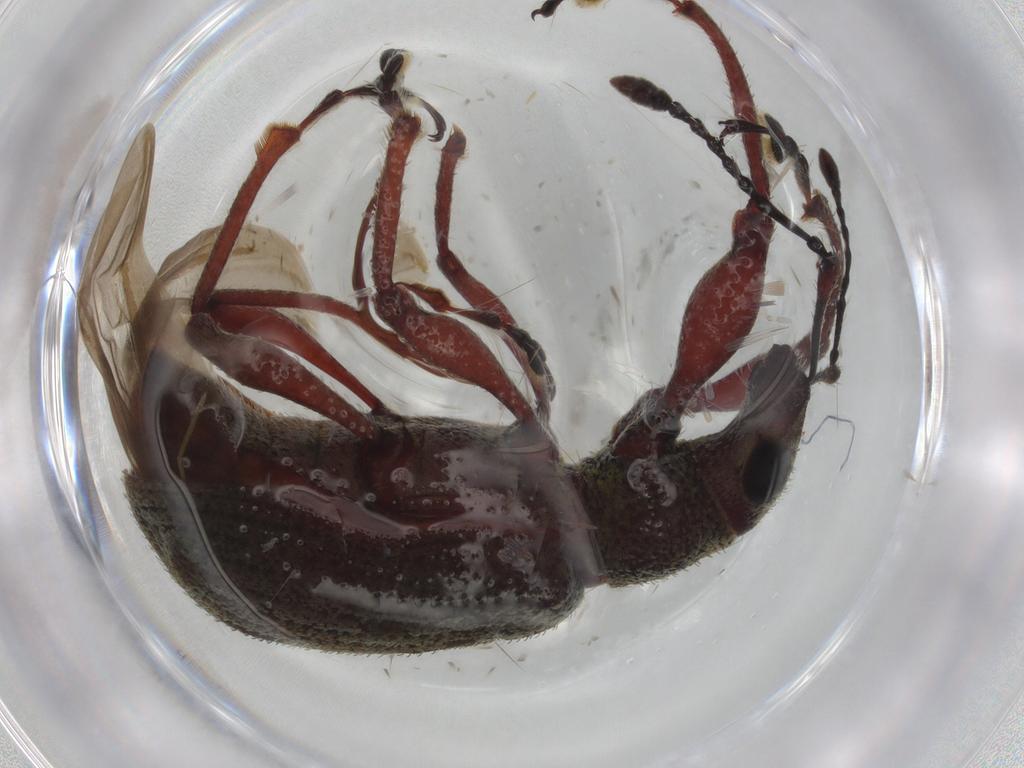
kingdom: Animalia
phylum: Arthropoda
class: Insecta
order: Coleoptera
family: Curculionidae
